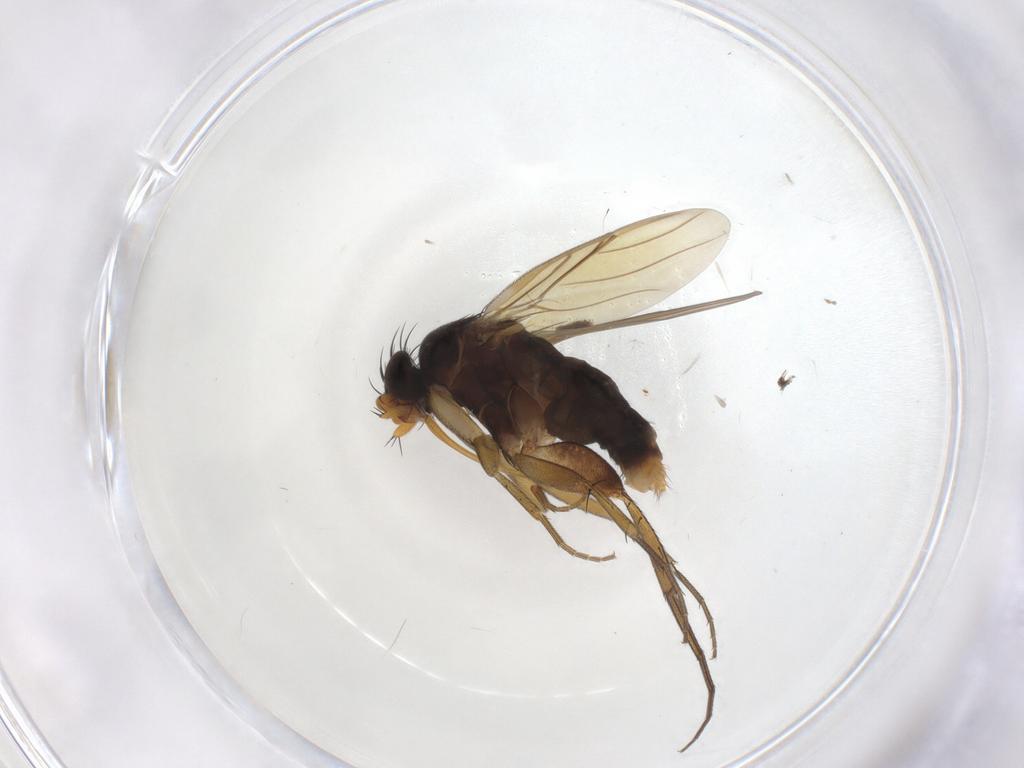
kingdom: Animalia
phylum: Arthropoda
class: Insecta
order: Diptera
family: Phoridae
